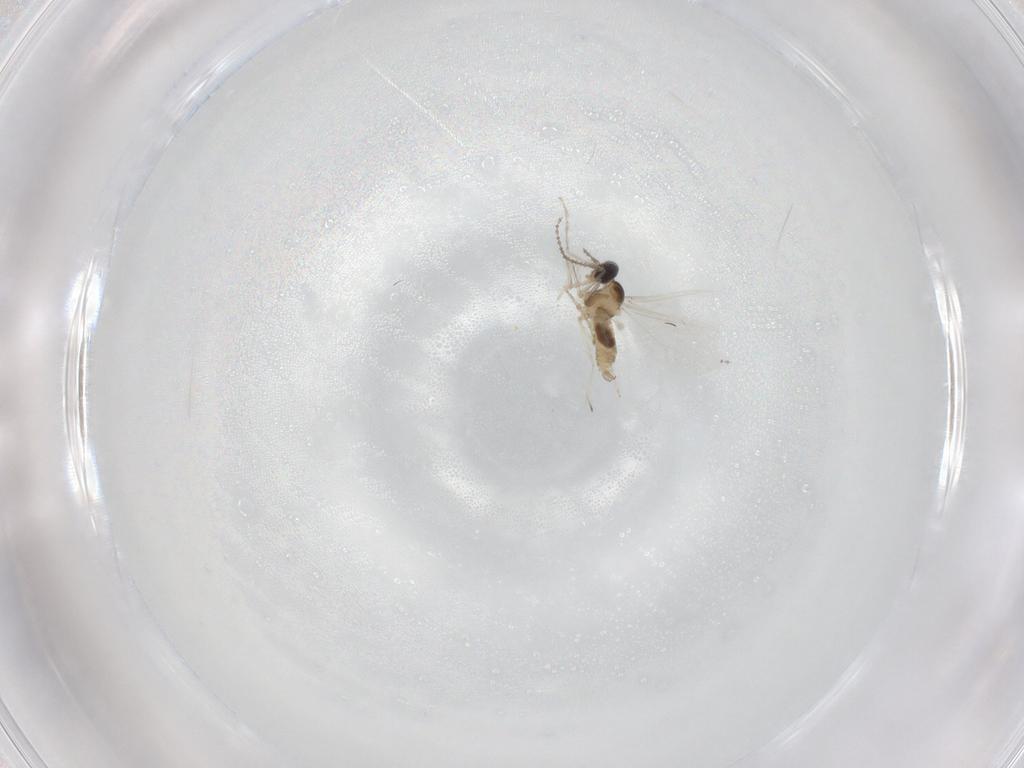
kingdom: Animalia
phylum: Arthropoda
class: Insecta
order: Diptera
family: Cecidomyiidae
